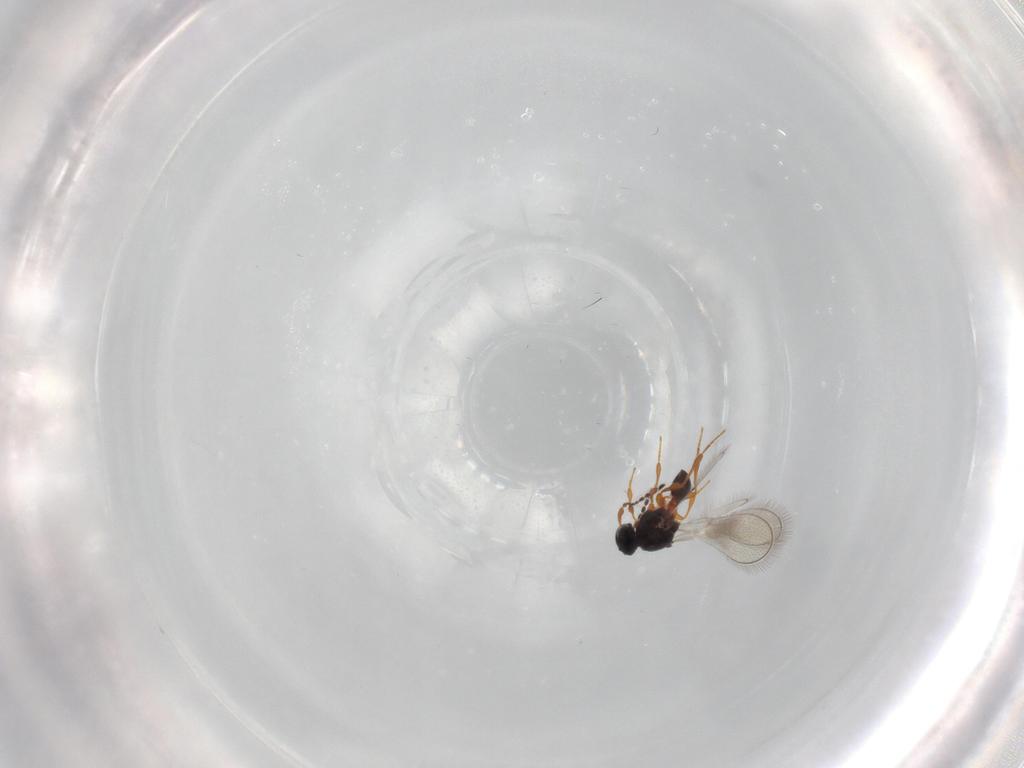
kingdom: Animalia
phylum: Arthropoda
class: Insecta
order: Hymenoptera
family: Platygastridae
